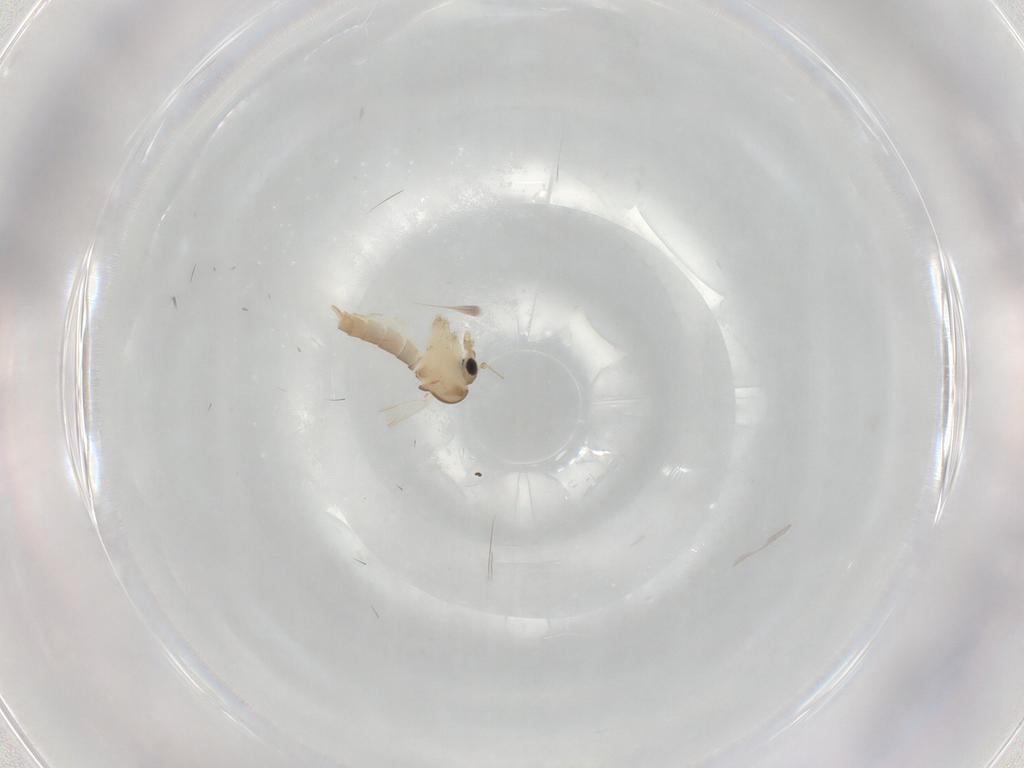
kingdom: Animalia
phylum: Arthropoda
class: Insecta
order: Diptera
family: Psychodidae
